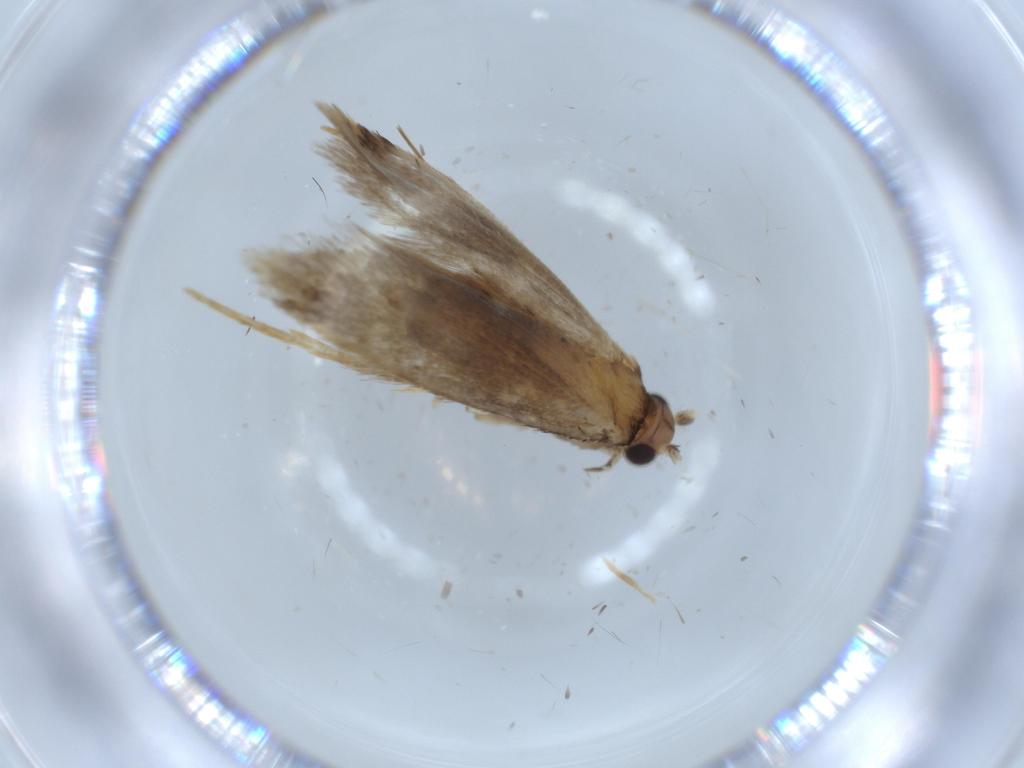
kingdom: Animalia
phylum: Arthropoda
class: Insecta
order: Lepidoptera
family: Tineidae
